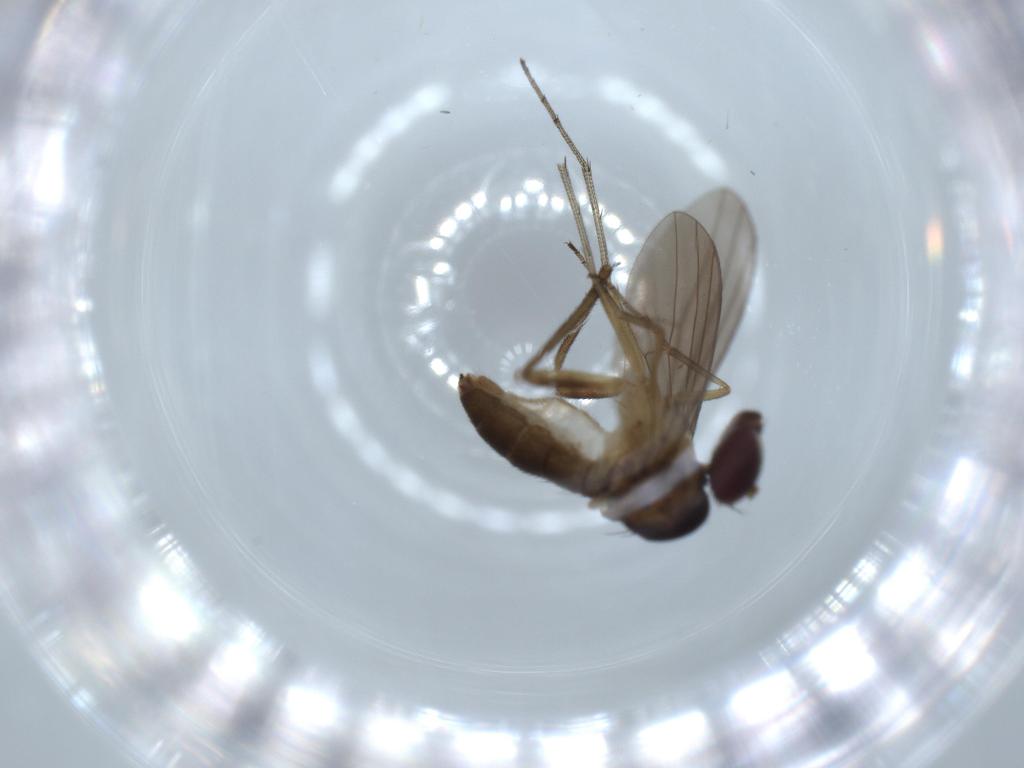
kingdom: Animalia
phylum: Arthropoda
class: Insecta
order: Diptera
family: Dolichopodidae
